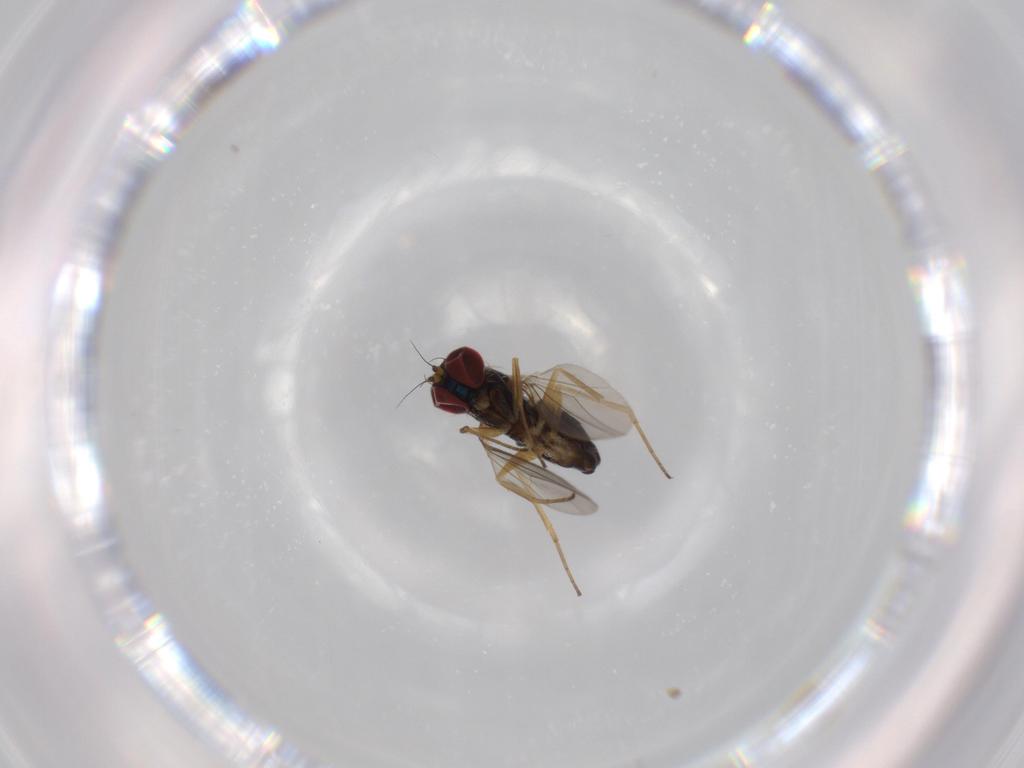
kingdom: Animalia
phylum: Arthropoda
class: Insecta
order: Diptera
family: Dolichopodidae
